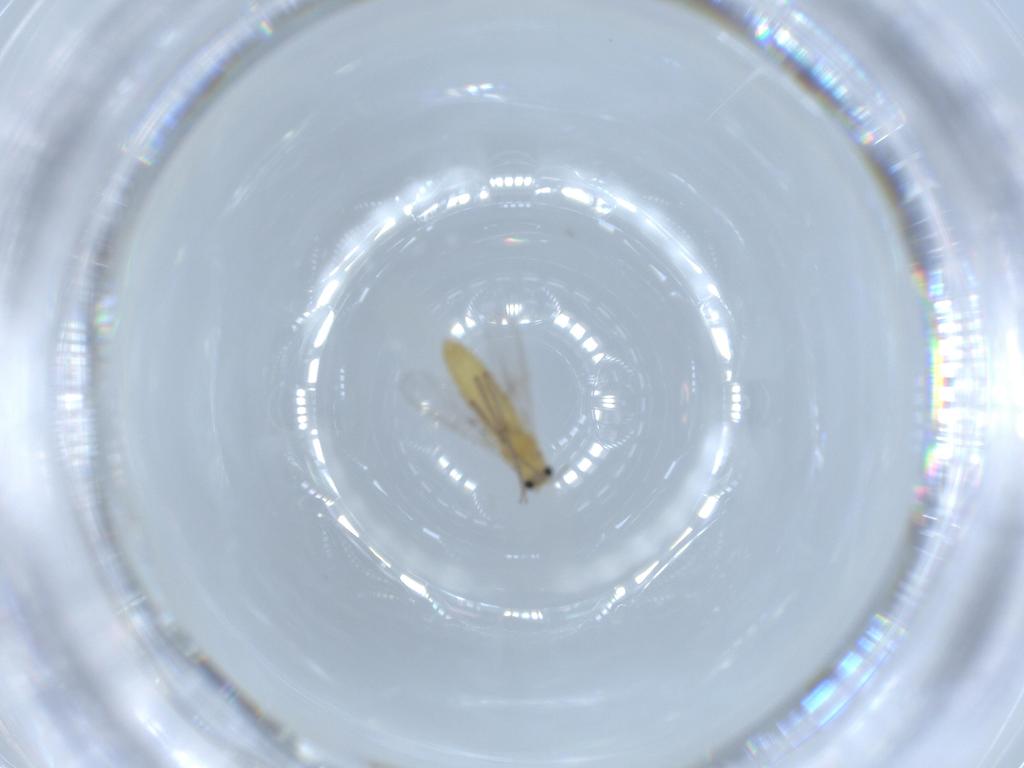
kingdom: Animalia
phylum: Arthropoda
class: Insecta
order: Diptera
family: Chironomidae
